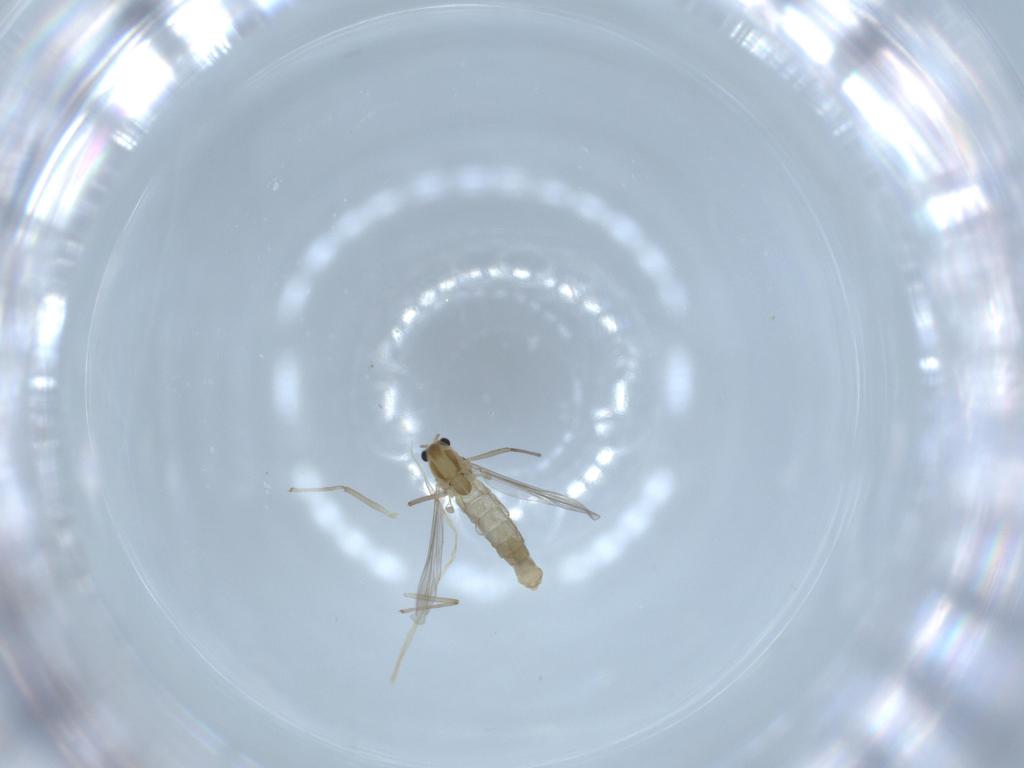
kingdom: Animalia
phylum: Arthropoda
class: Insecta
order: Diptera
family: Chironomidae
